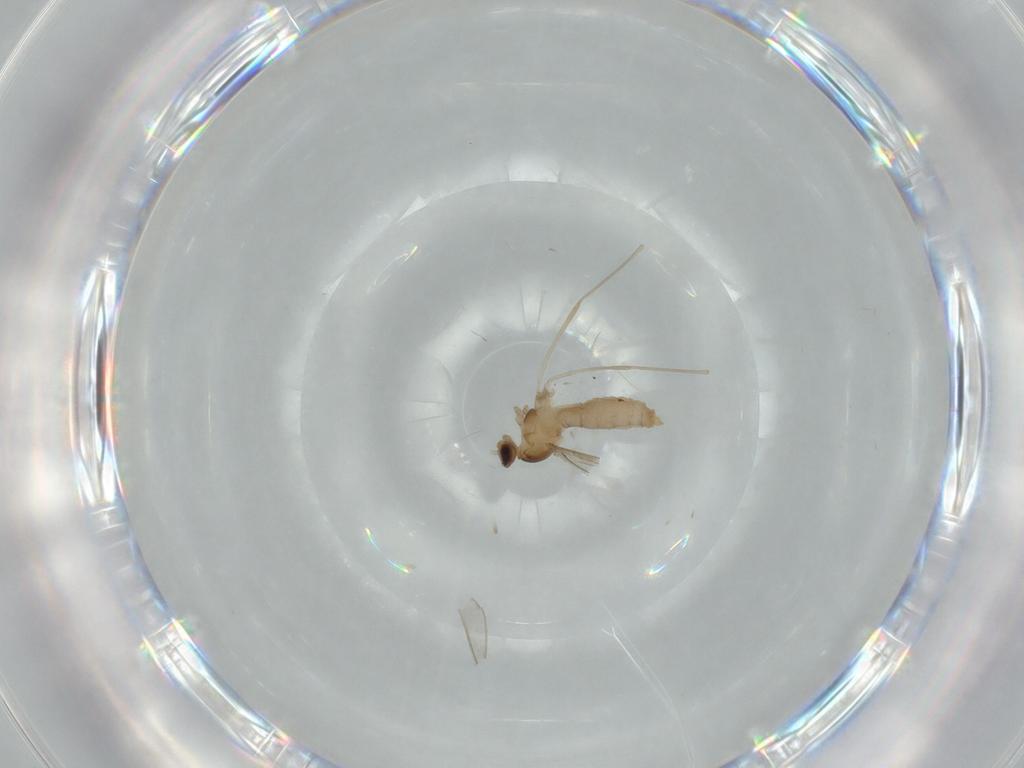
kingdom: Animalia
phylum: Arthropoda
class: Insecta
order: Diptera
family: Cecidomyiidae
